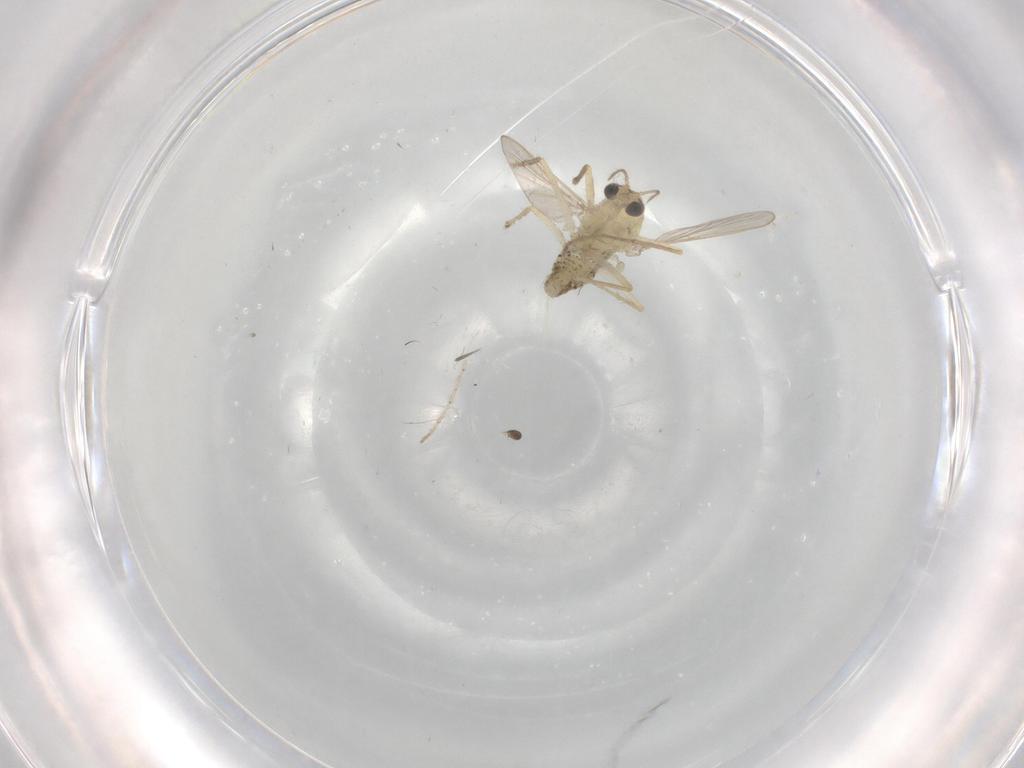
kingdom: Animalia
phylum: Arthropoda
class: Insecta
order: Diptera
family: Chironomidae
